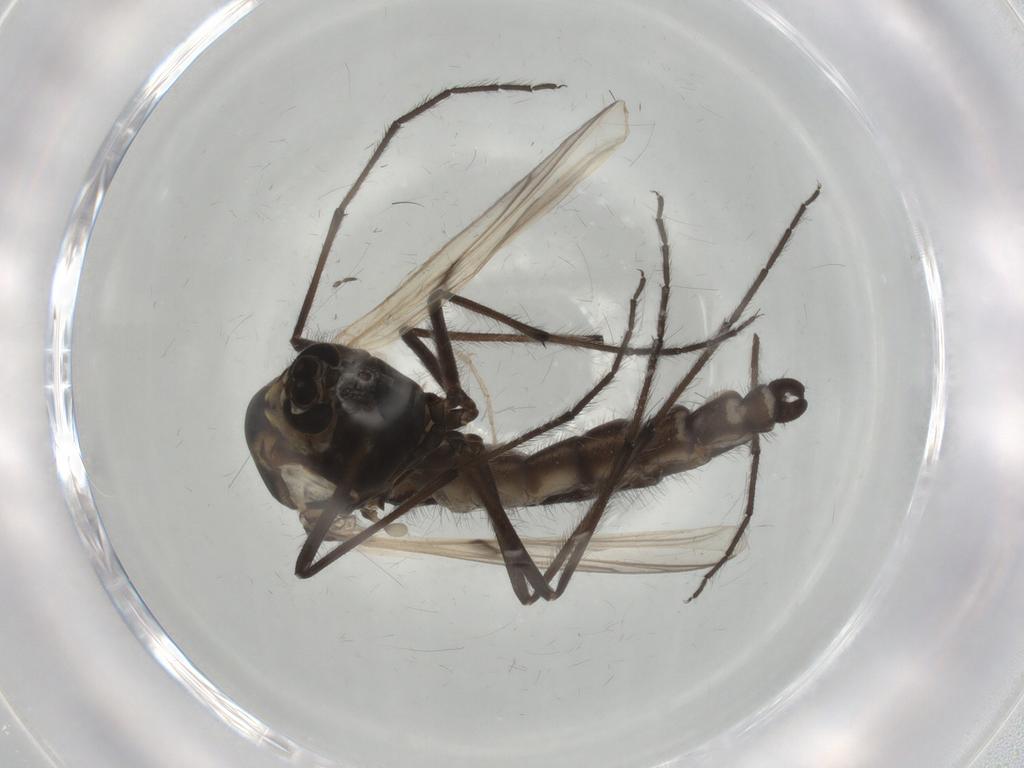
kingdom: Animalia
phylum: Arthropoda
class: Insecta
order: Diptera
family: Chironomidae
